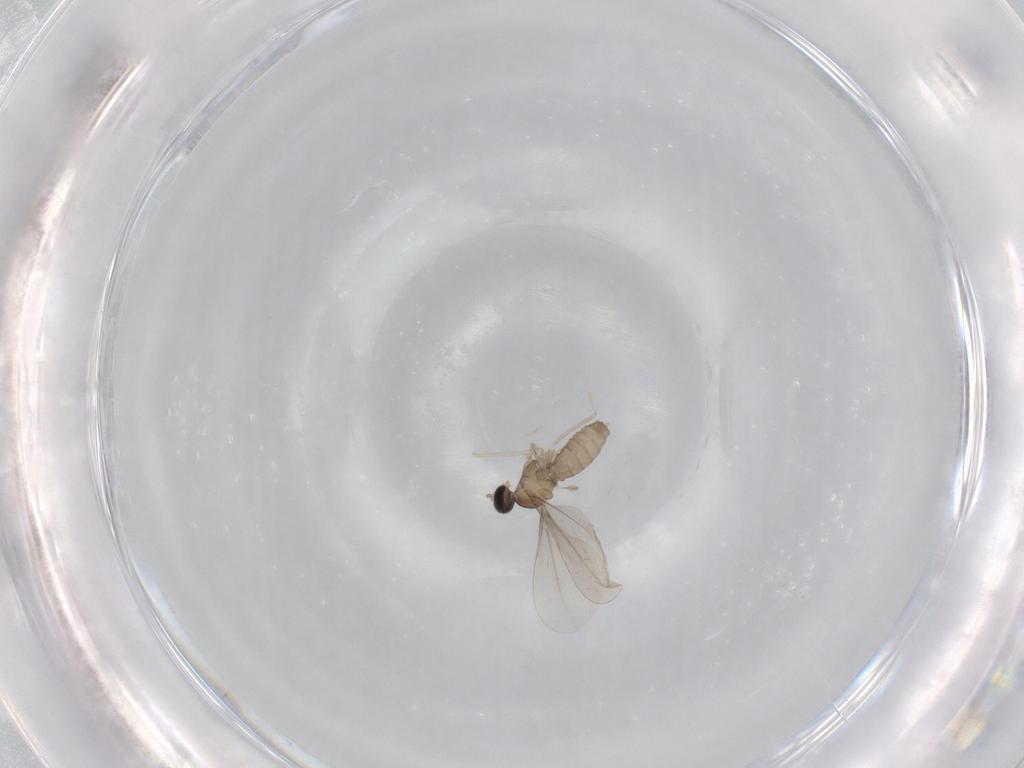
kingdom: Animalia
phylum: Arthropoda
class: Insecta
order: Diptera
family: Cecidomyiidae
